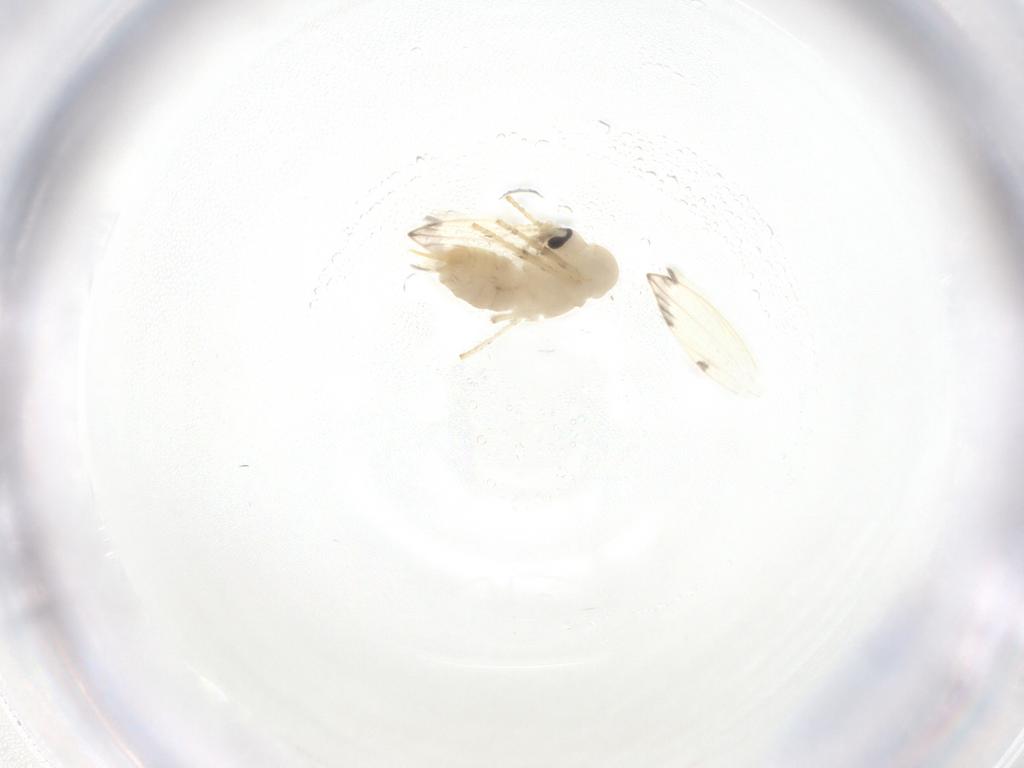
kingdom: Animalia
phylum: Arthropoda
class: Insecta
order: Diptera
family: Psychodidae
